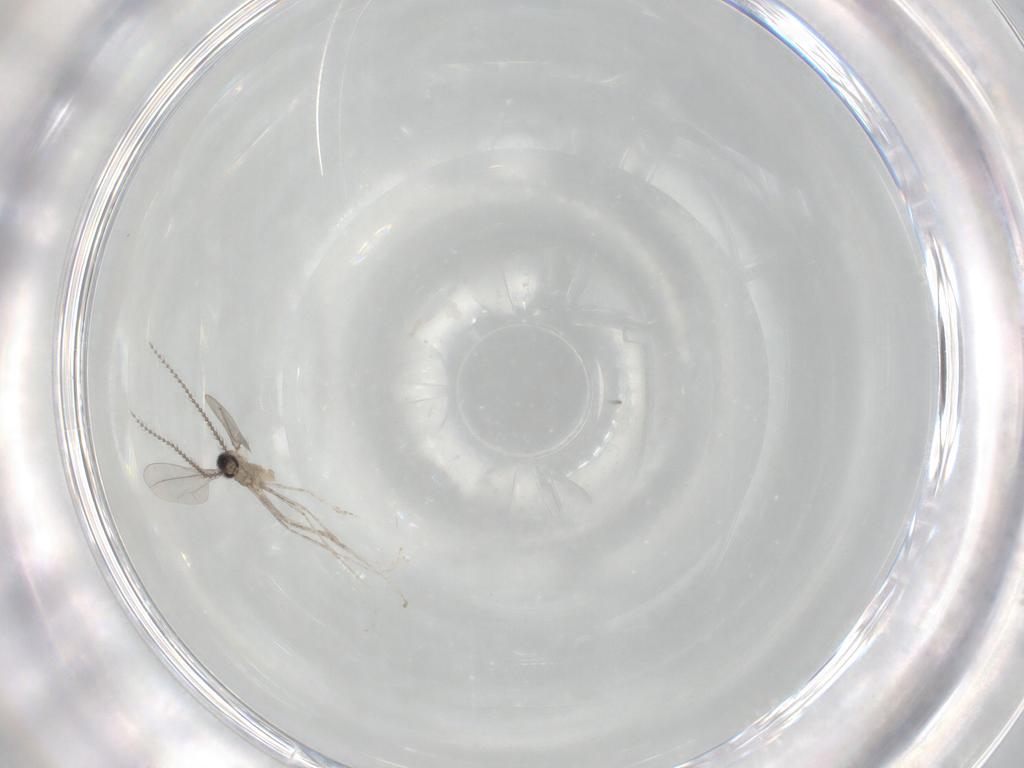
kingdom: Animalia
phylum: Arthropoda
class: Insecta
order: Diptera
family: Cecidomyiidae
